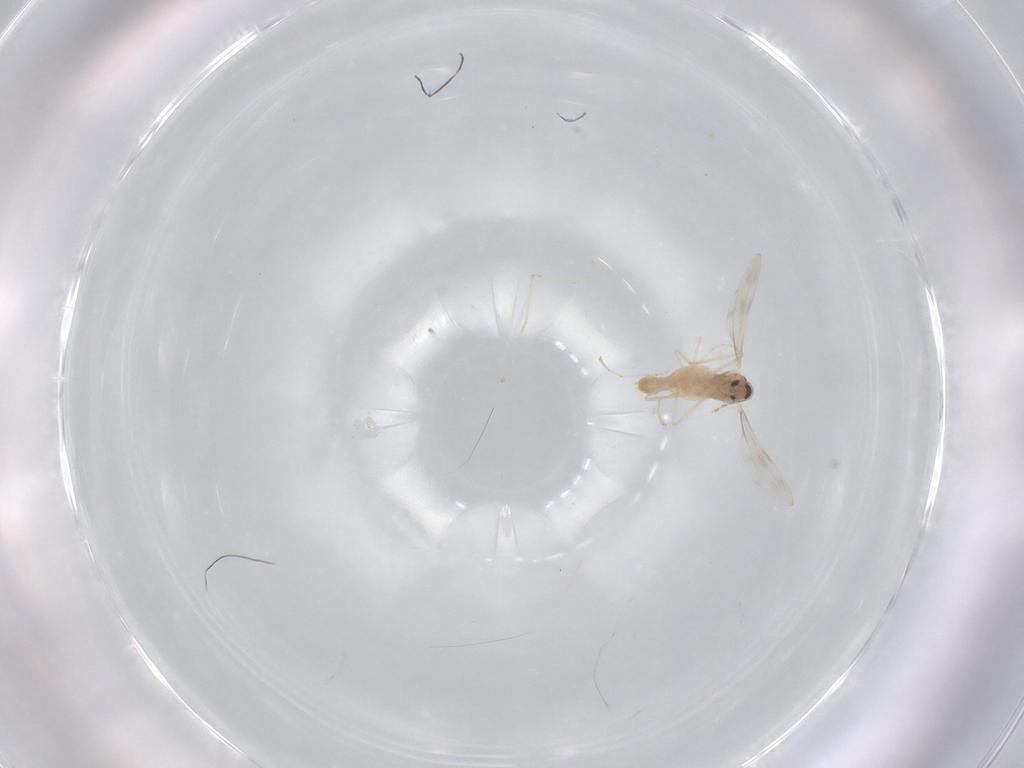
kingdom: Animalia
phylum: Arthropoda
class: Insecta
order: Diptera
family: Cecidomyiidae
